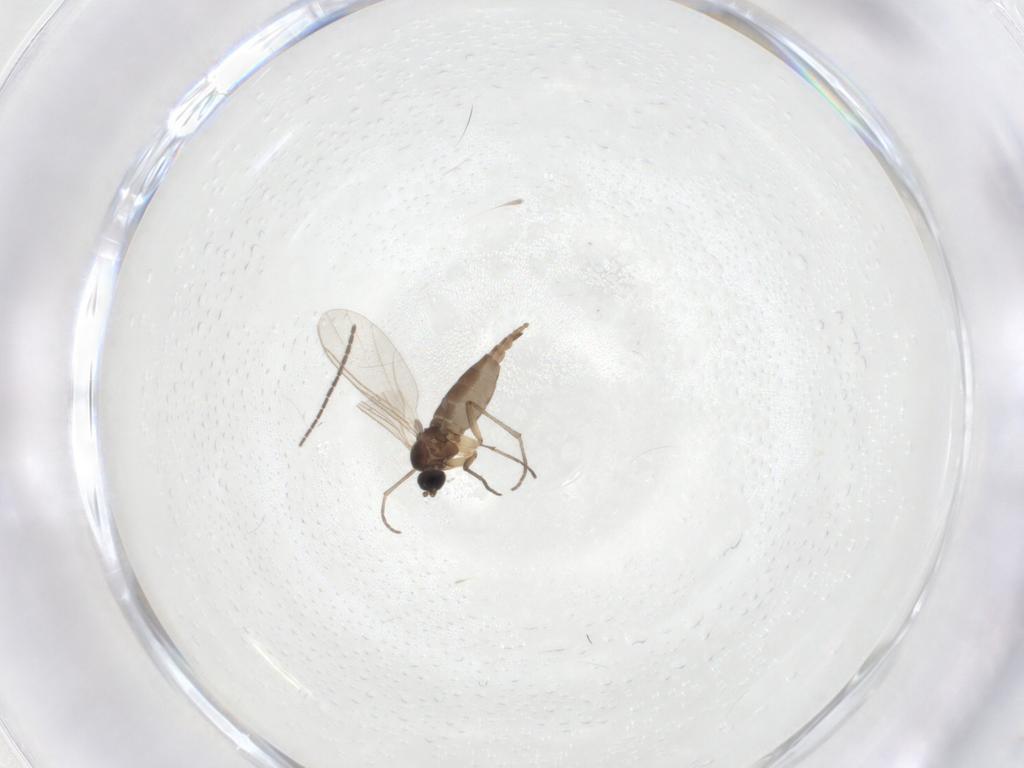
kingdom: Animalia
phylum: Arthropoda
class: Insecta
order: Diptera
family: Sciaridae
